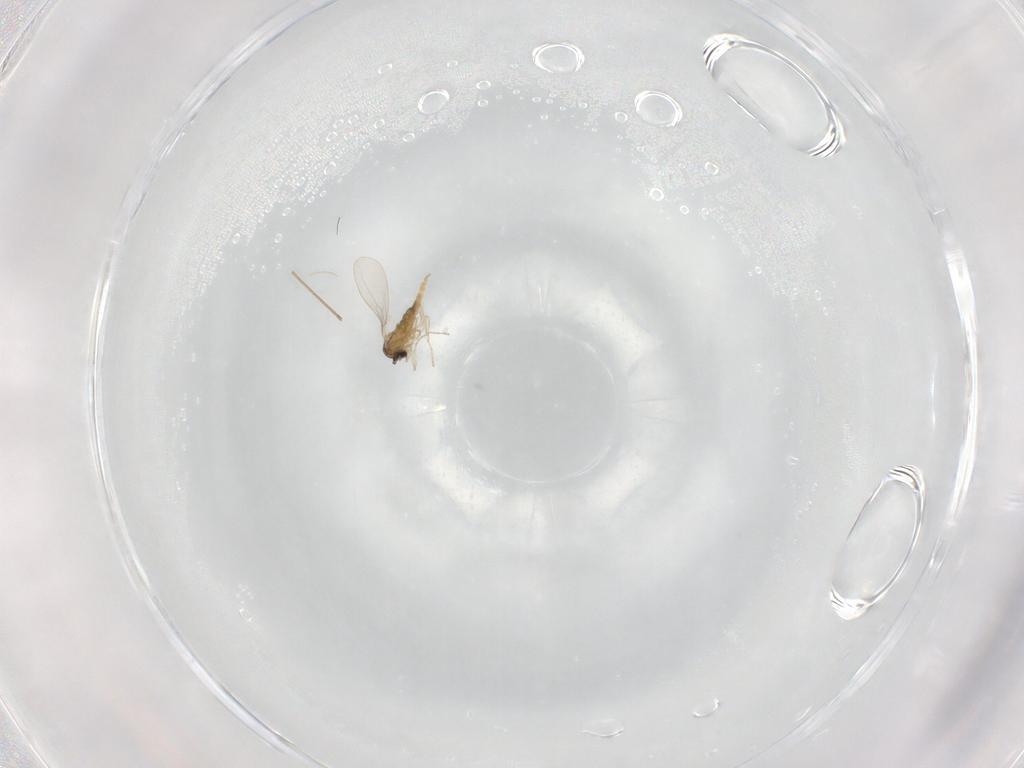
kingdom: Animalia
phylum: Arthropoda
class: Insecta
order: Diptera
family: Cecidomyiidae
